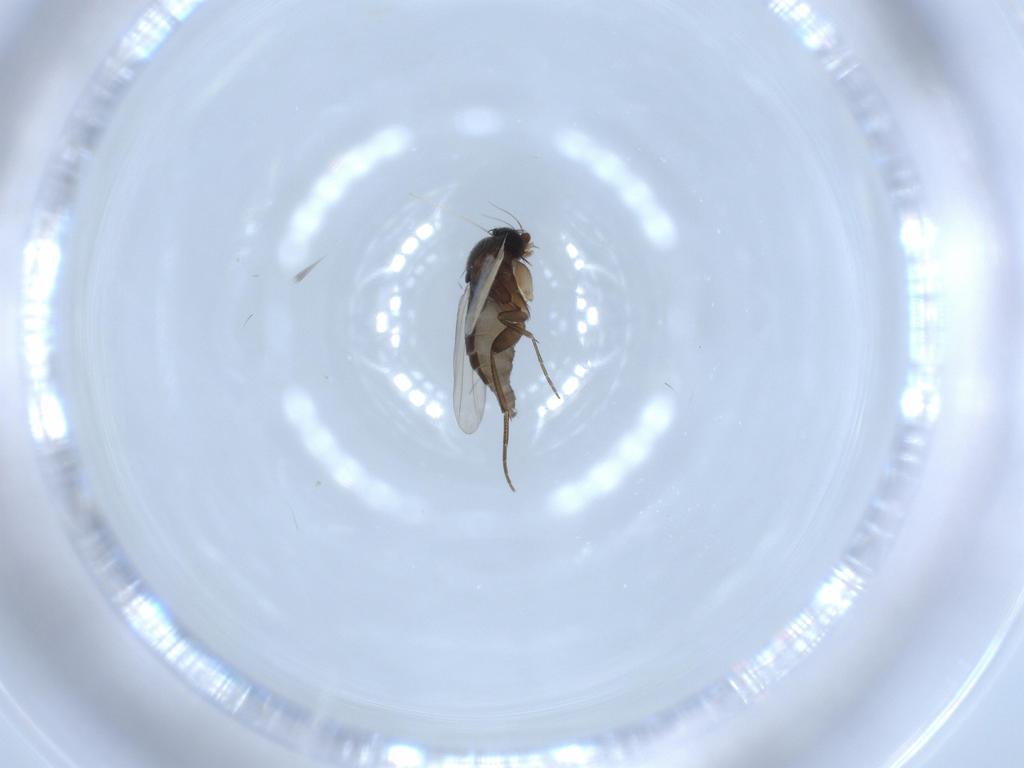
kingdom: Animalia
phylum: Arthropoda
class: Insecta
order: Diptera
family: Phoridae
